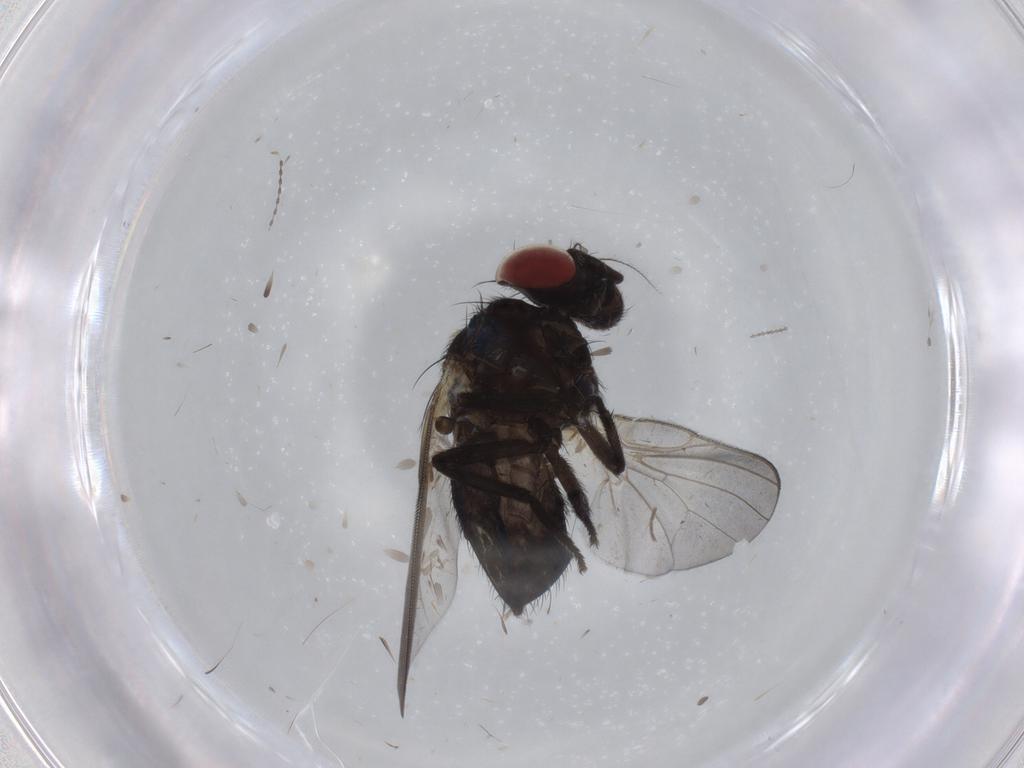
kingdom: Animalia
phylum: Arthropoda
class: Insecta
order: Diptera
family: Lonchaeidae
